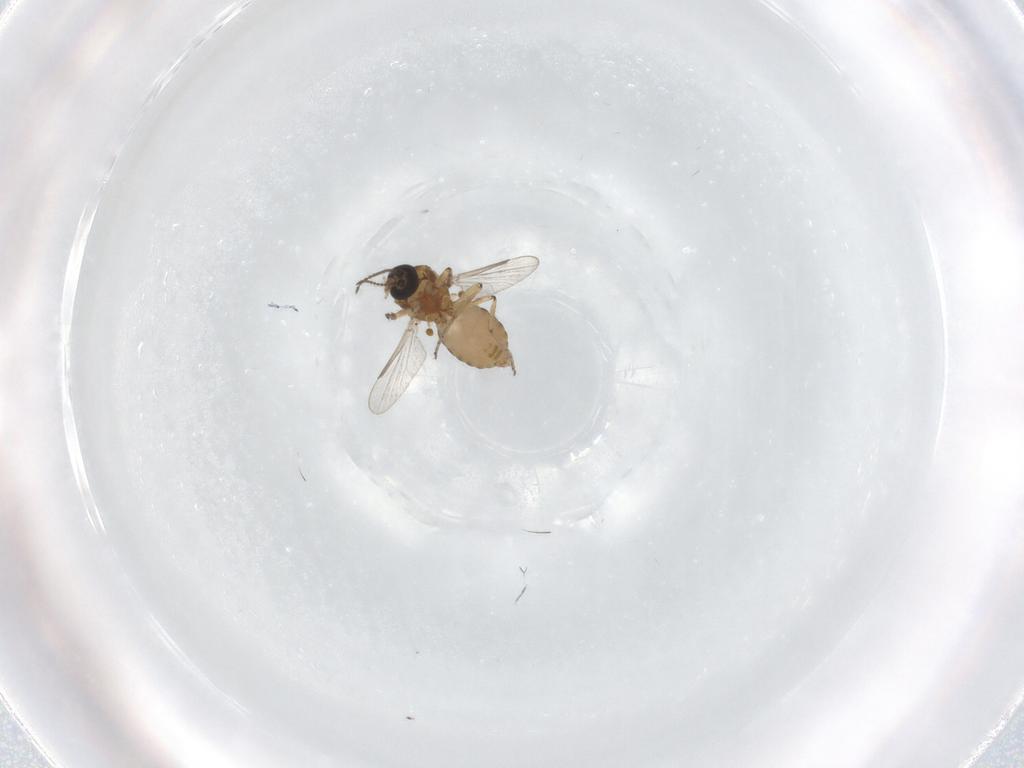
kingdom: Animalia
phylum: Arthropoda
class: Insecta
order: Diptera
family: Ceratopogonidae
